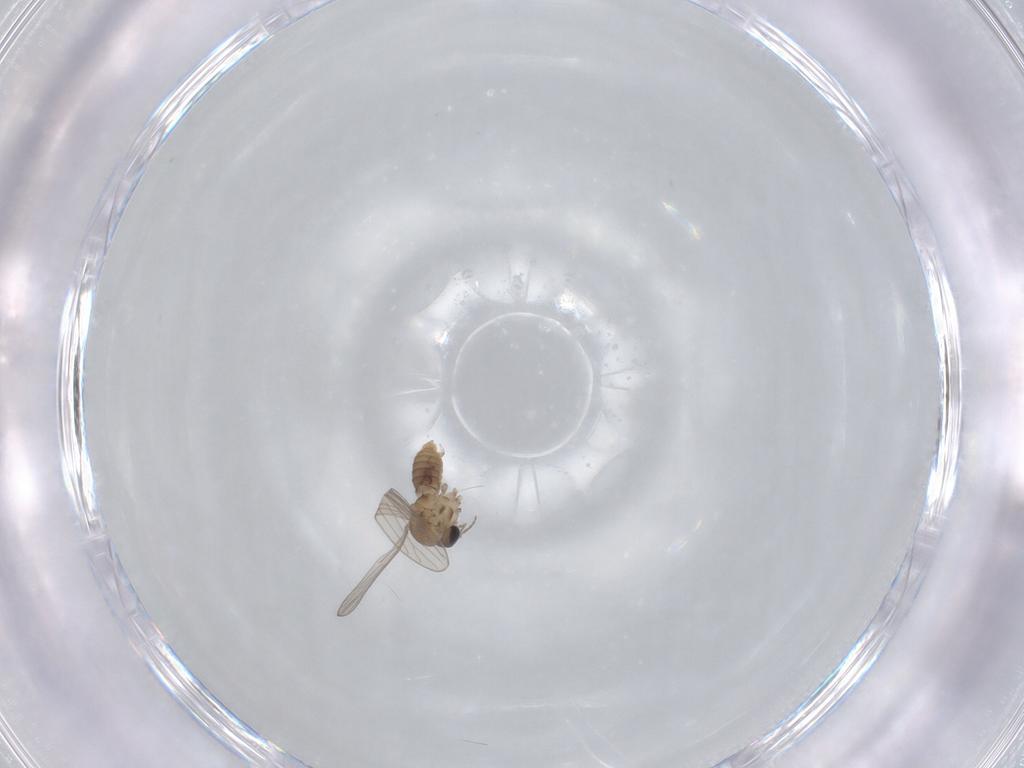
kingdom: Animalia
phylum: Arthropoda
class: Insecta
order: Diptera
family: Psychodidae
